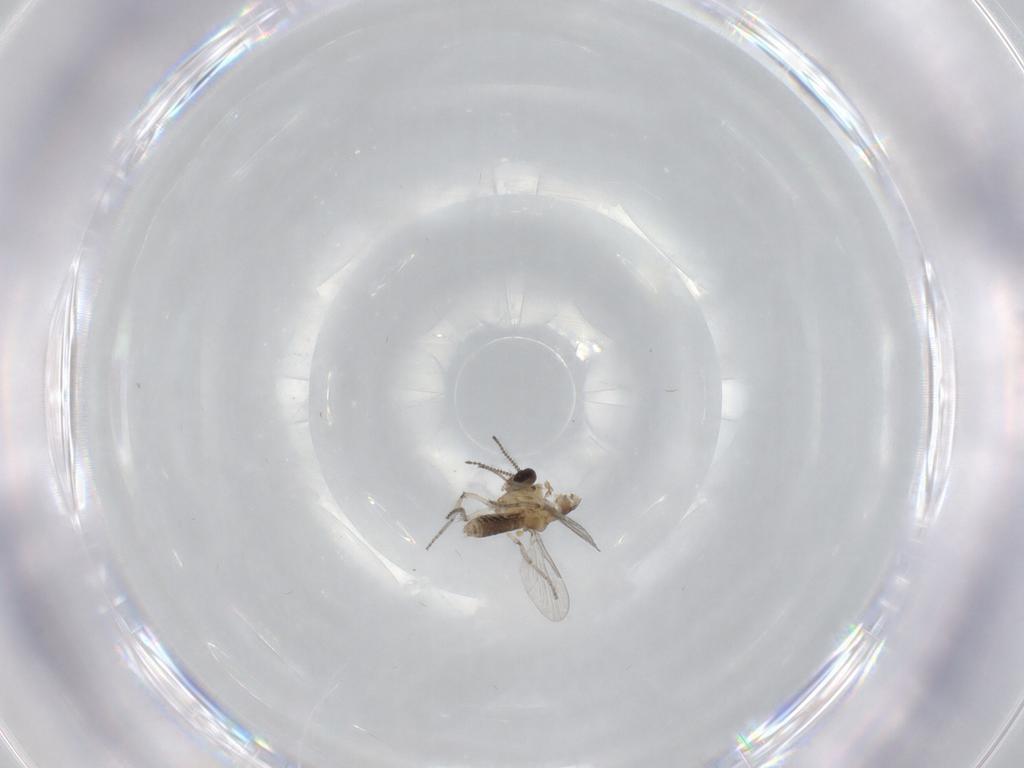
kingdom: Animalia
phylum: Arthropoda
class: Insecta
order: Diptera
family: Ceratopogonidae
